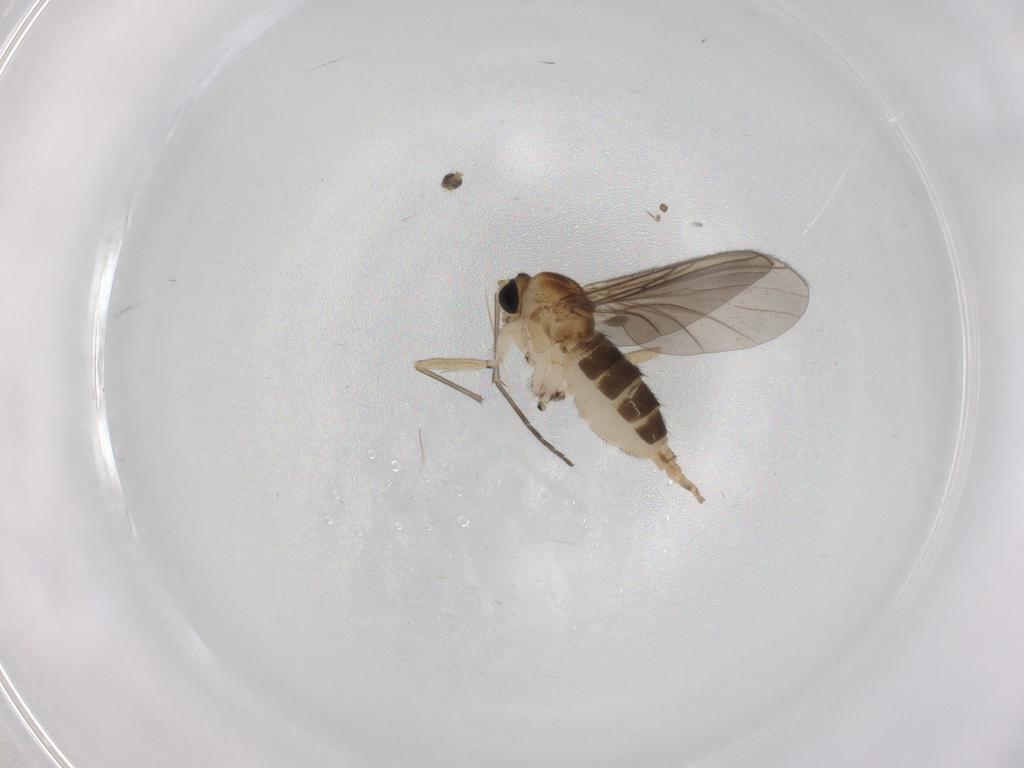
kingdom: Animalia
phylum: Arthropoda
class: Insecta
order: Diptera
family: Sciaridae
